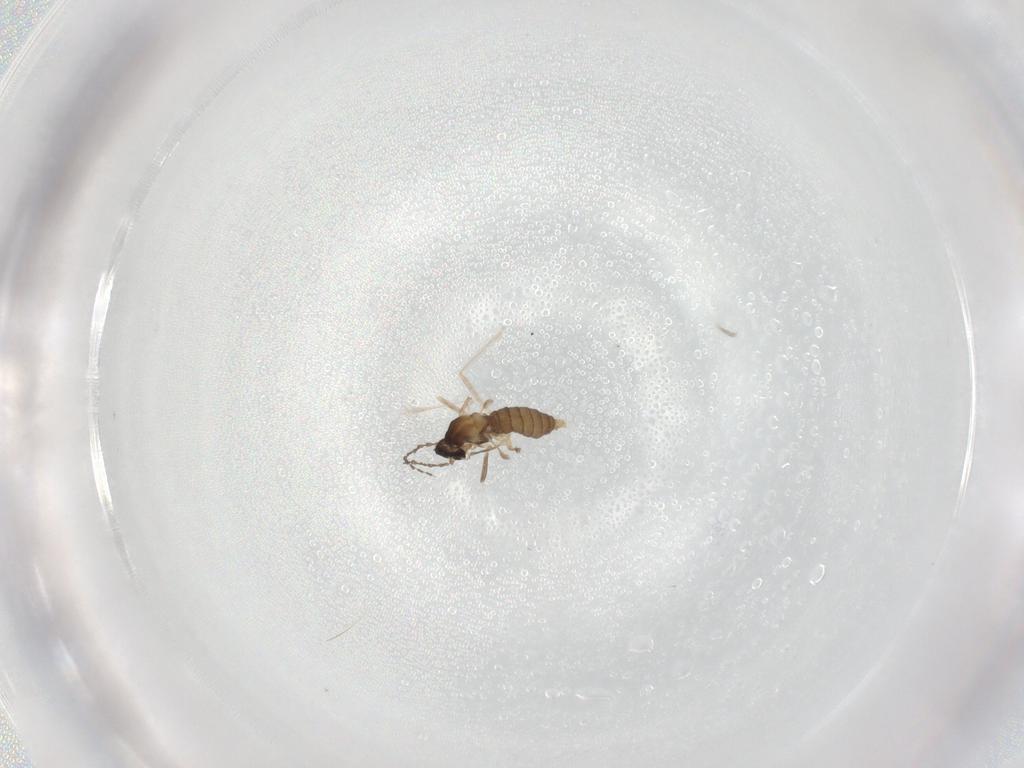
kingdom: Animalia
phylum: Arthropoda
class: Insecta
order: Diptera
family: Cecidomyiidae
